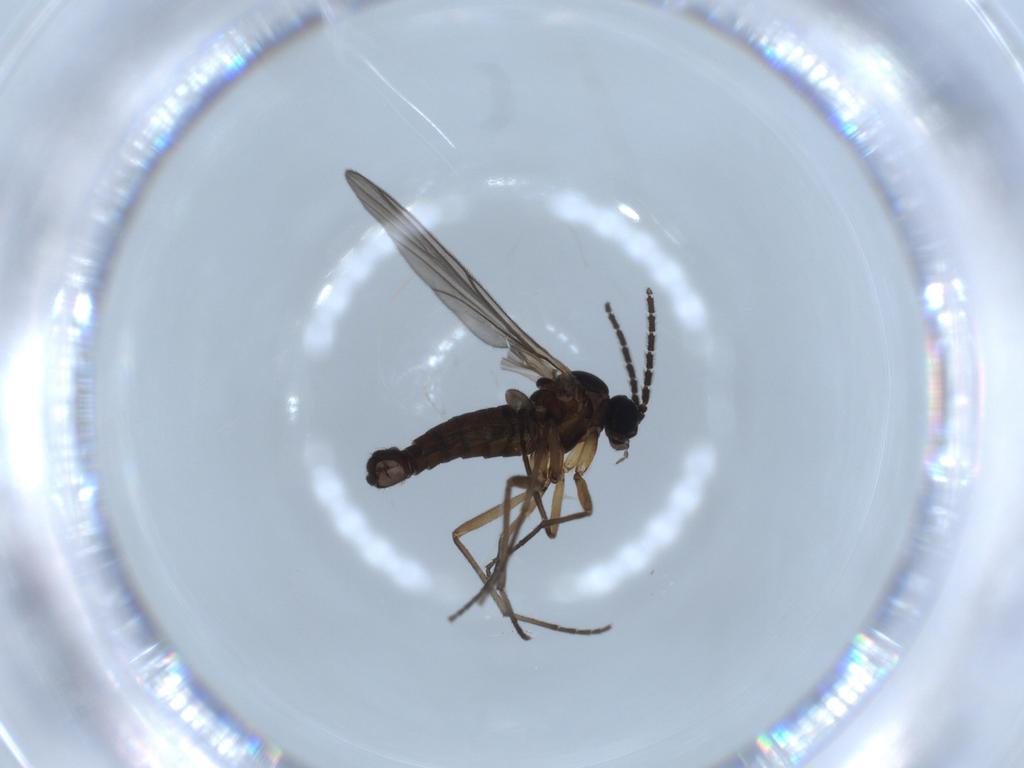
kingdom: Animalia
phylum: Arthropoda
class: Insecta
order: Diptera
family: Sciaridae
